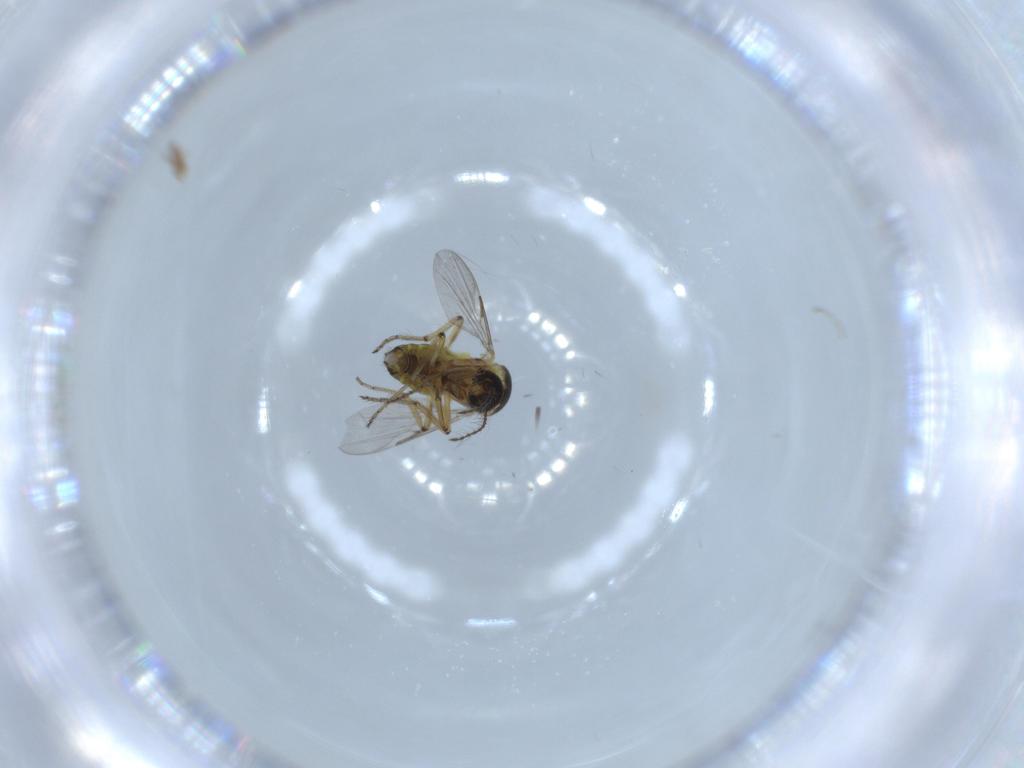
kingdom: Animalia
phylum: Arthropoda
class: Insecta
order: Diptera
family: Ceratopogonidae
